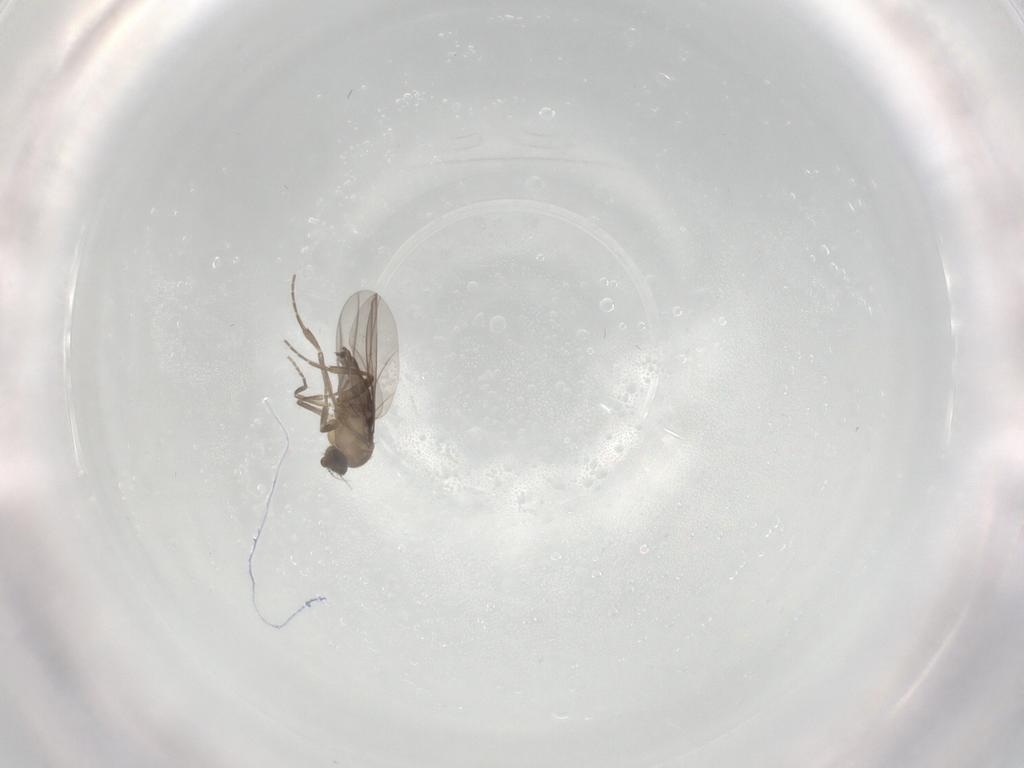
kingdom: Animalia
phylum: Arthropoda
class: Insecta
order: Diptera
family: Phoridae
